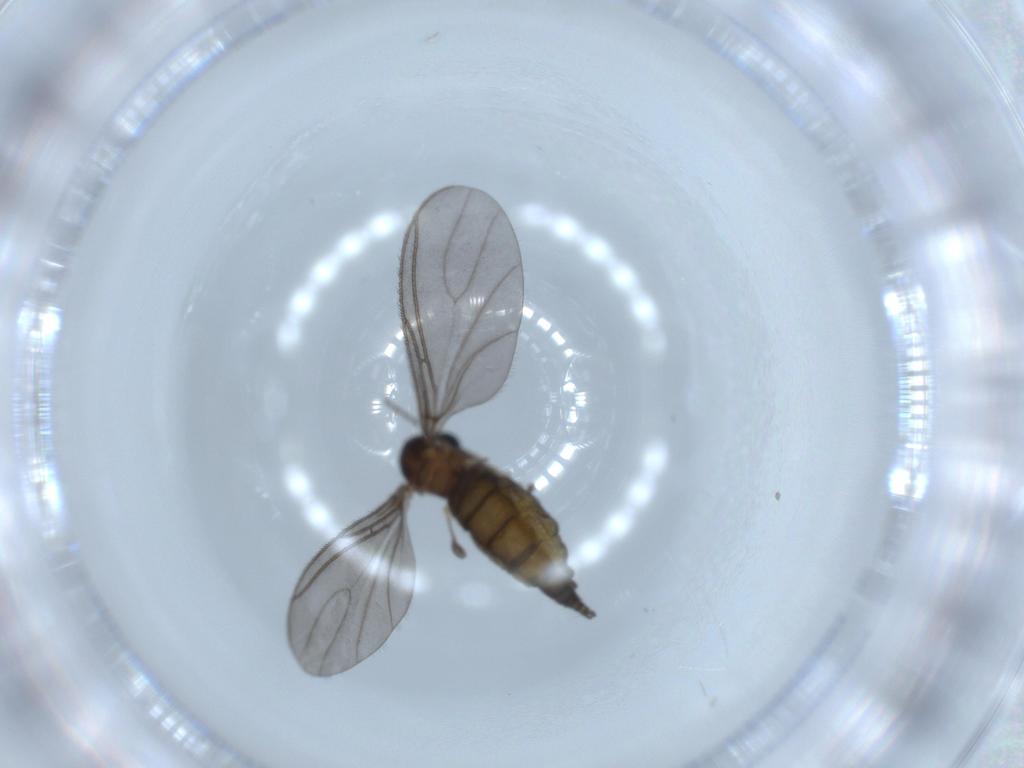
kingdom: Animalia
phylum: Arthropoda
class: Insecta
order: Diptera
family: Sciaridae
